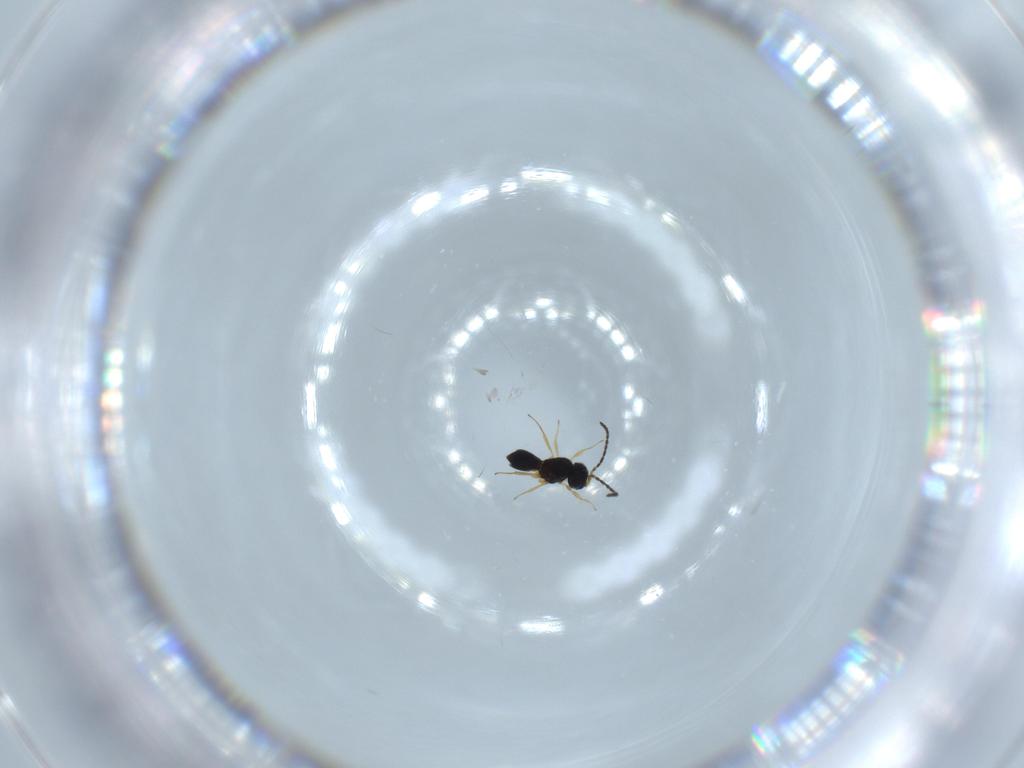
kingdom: Animalia
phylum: Arthropoda
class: Insecta
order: Hymenoptera
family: Scelionidae
